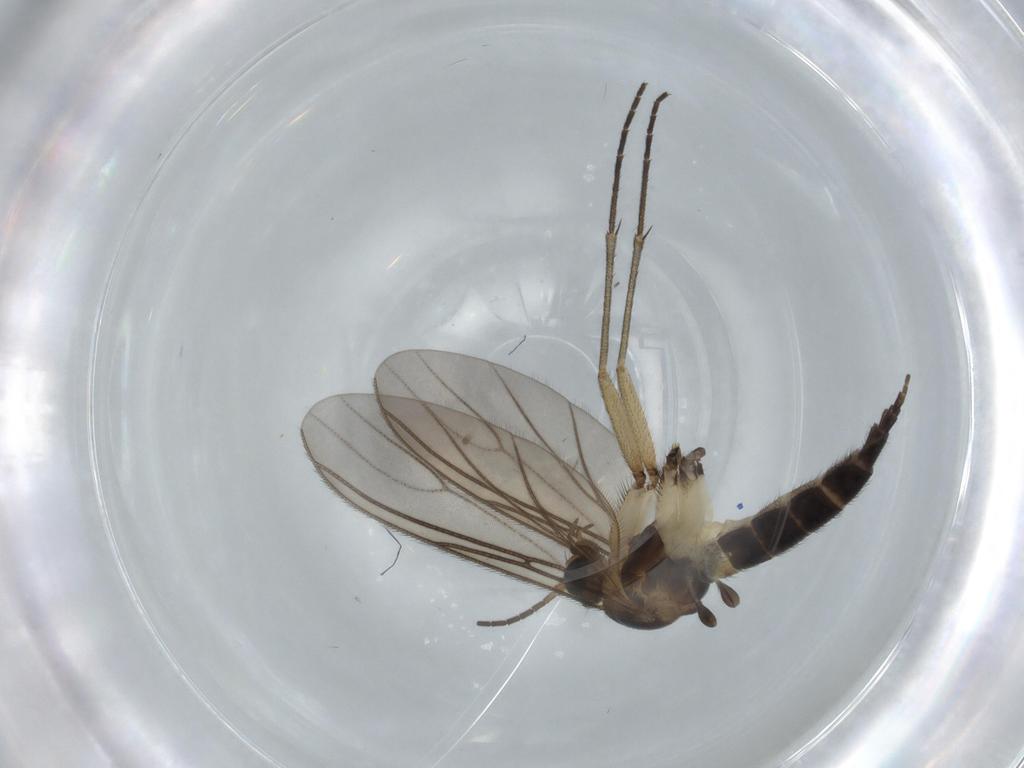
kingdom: Animalia
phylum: Arthropoda
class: Insecta
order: Diptera
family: Sciaridae
